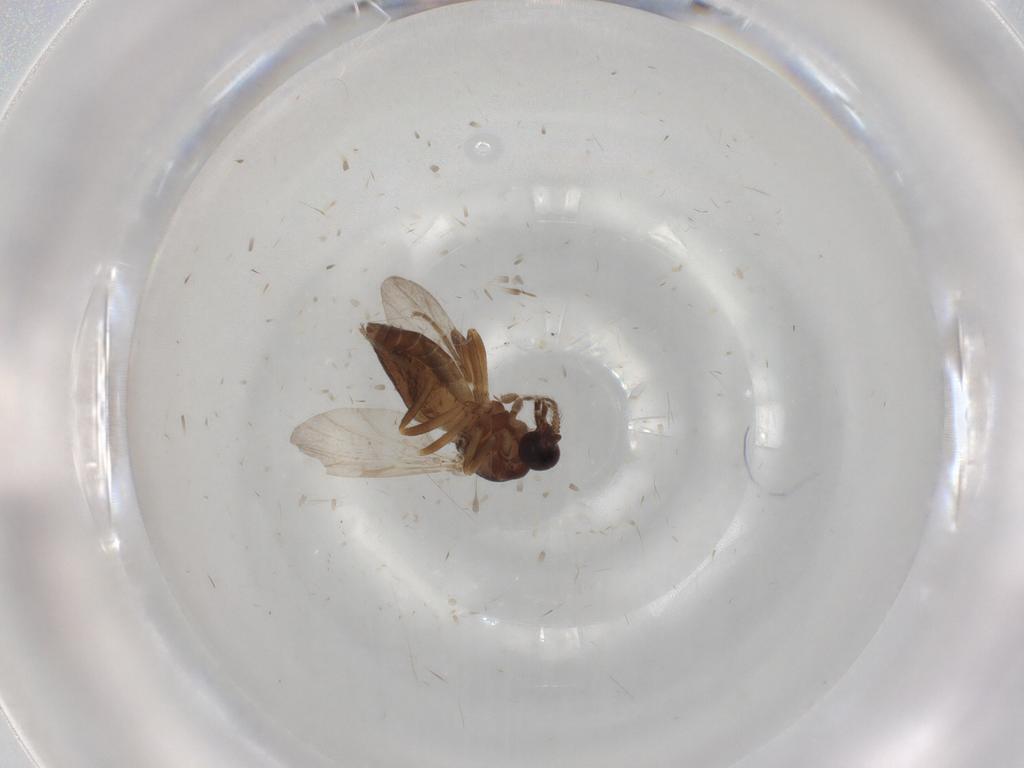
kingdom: Animalia
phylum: Arthropoda
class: Insecta
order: Diptera
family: Ceratopogonidae
